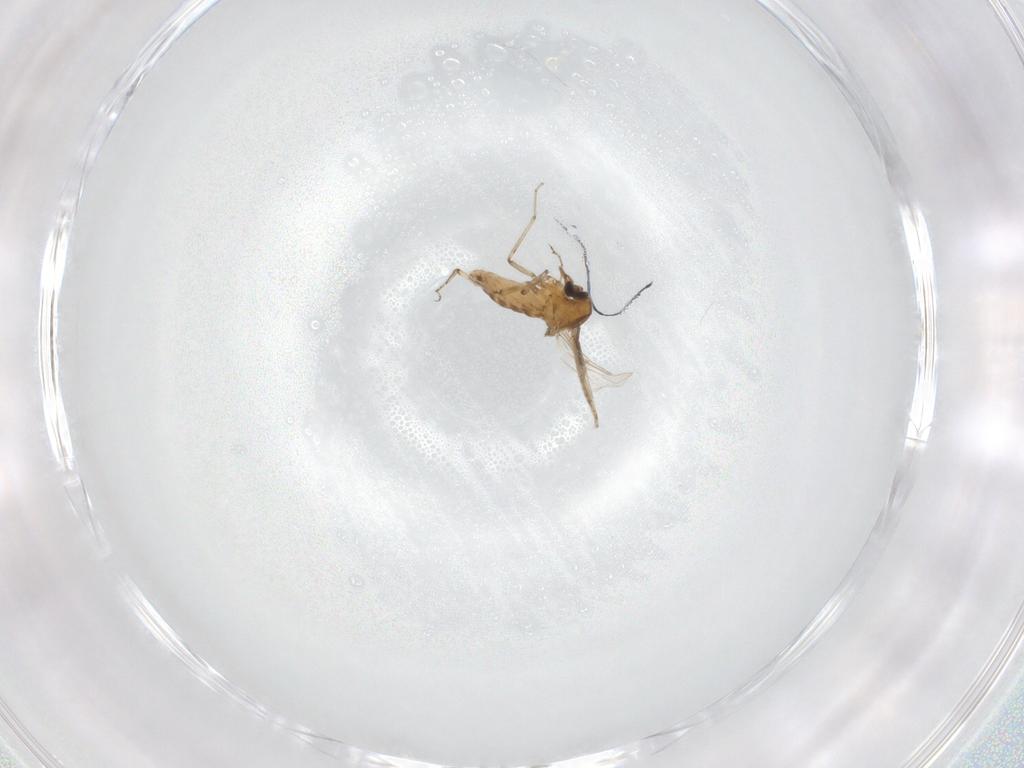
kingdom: Animalia
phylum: Arthropoda
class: Insecta
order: Diptera
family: Ceratopogonidae
